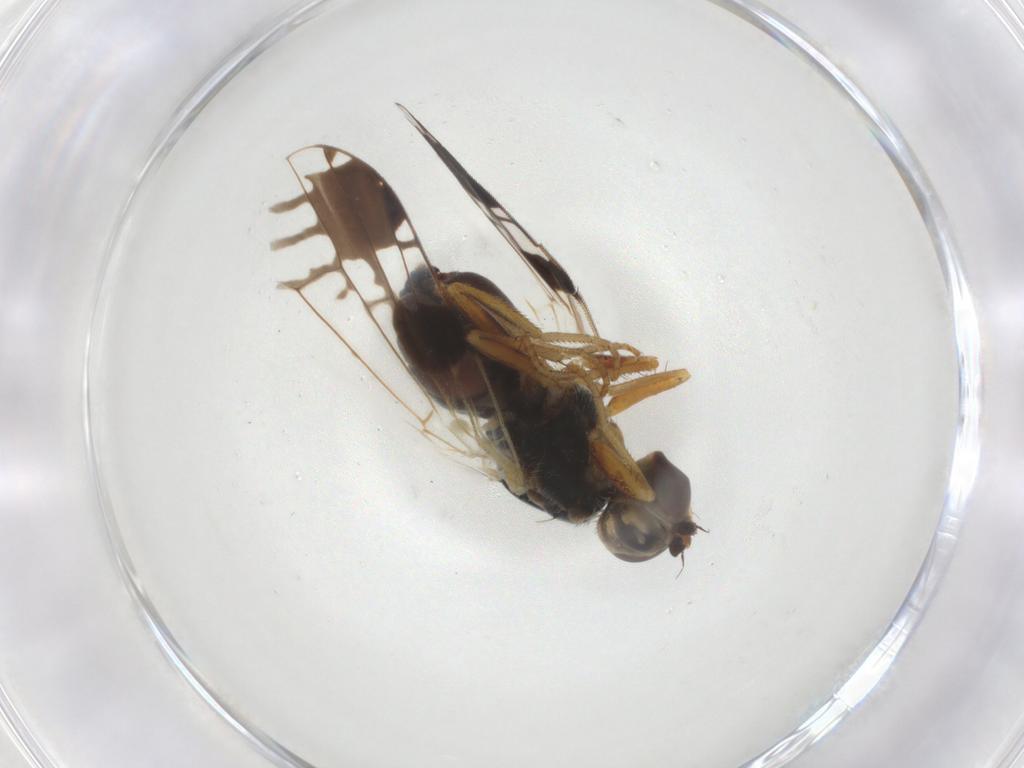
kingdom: Animalia
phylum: Arthropoda
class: Insecta
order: Diptera
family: Tephritidae
